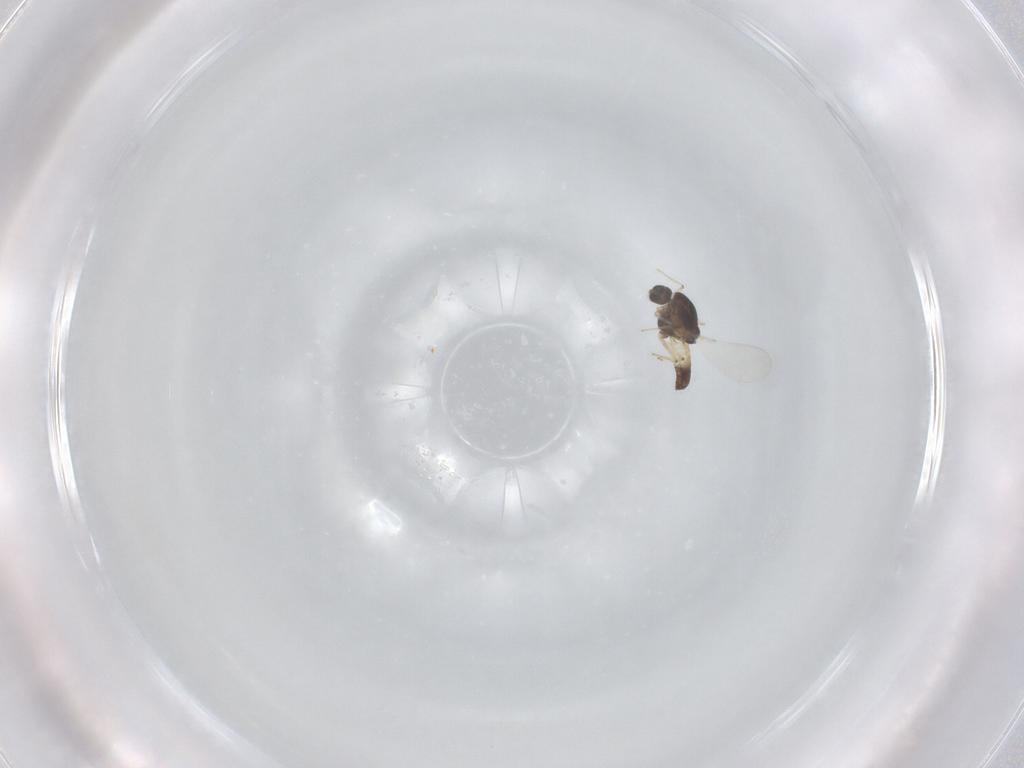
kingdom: Animalia
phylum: Arthropoda
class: Insecta
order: Diptera
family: Chironomidae
